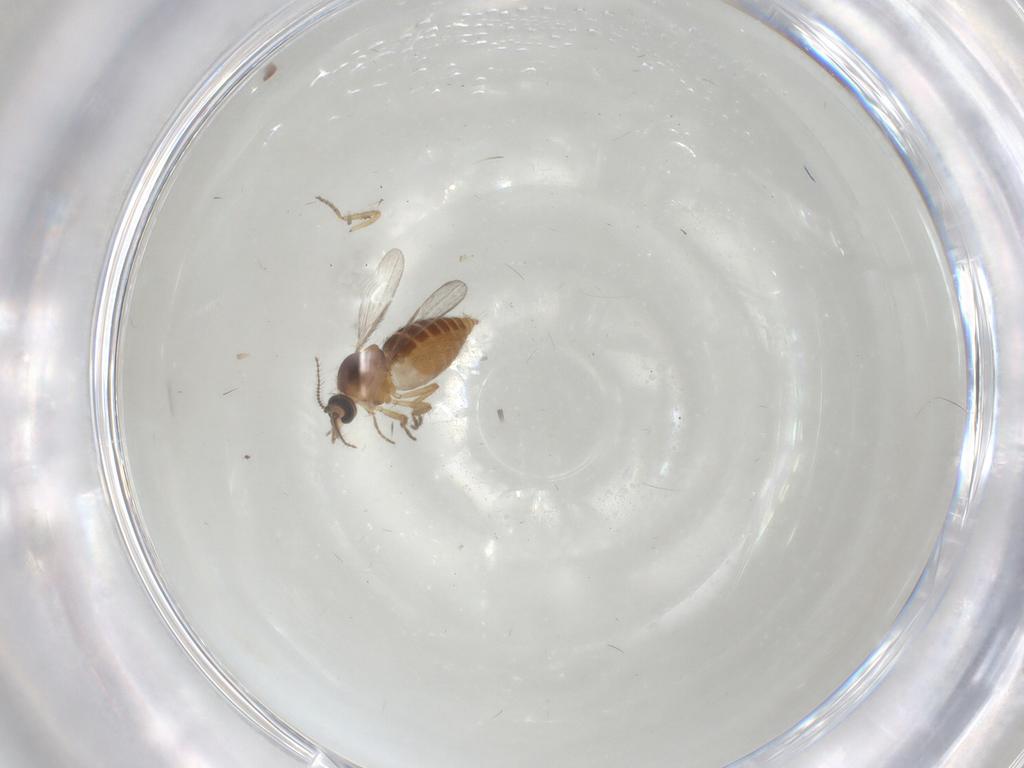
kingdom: Animalia
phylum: Arthropoda
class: Insecta
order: Diptera
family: Ceratopogonidae
